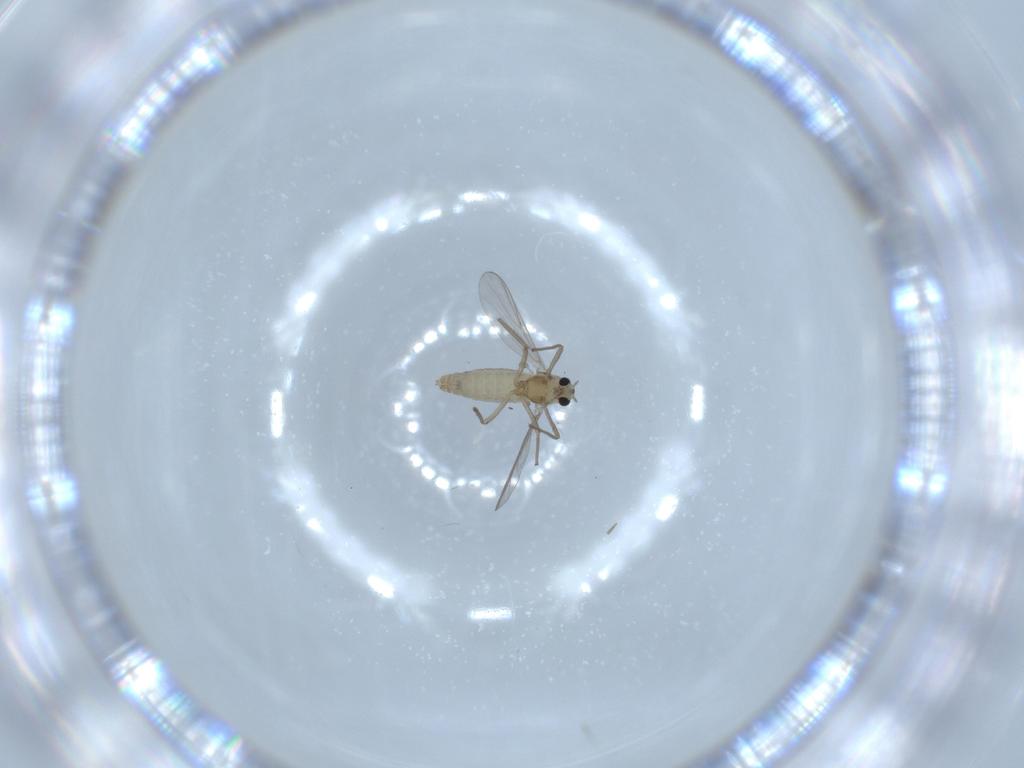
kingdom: Animalia
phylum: Arthropoda
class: Insecta
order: Diptera
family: Chironomidae
